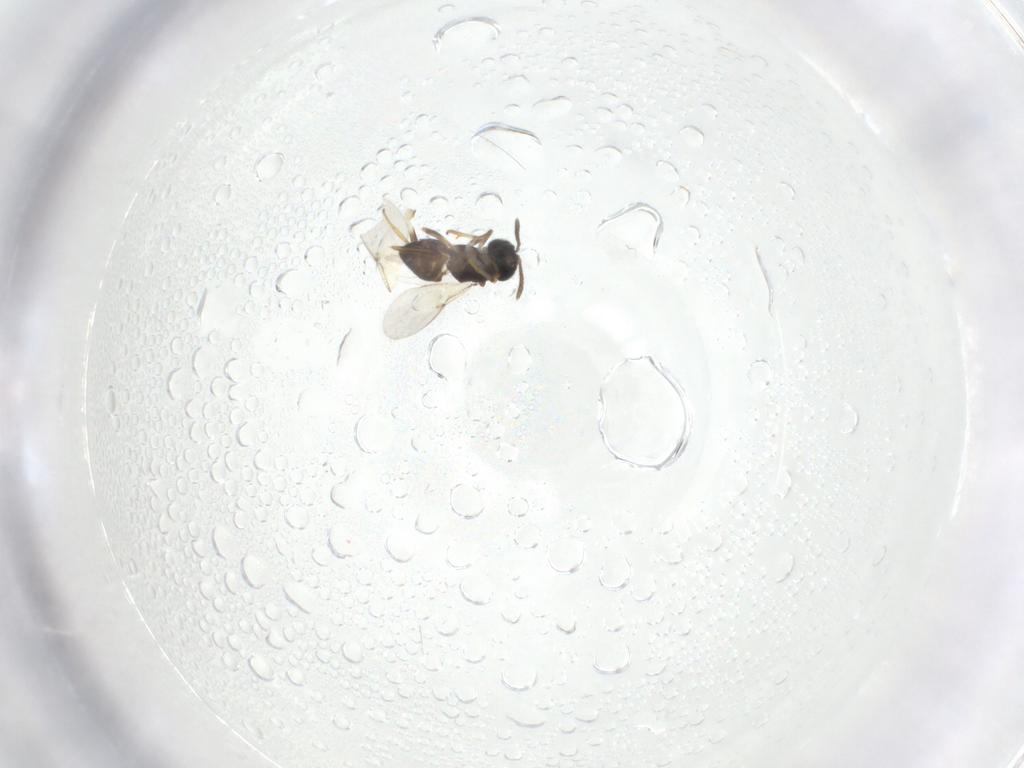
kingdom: Animalia
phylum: Arthropoda
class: Insecta
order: Hymenoptera
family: Encyrtidae
